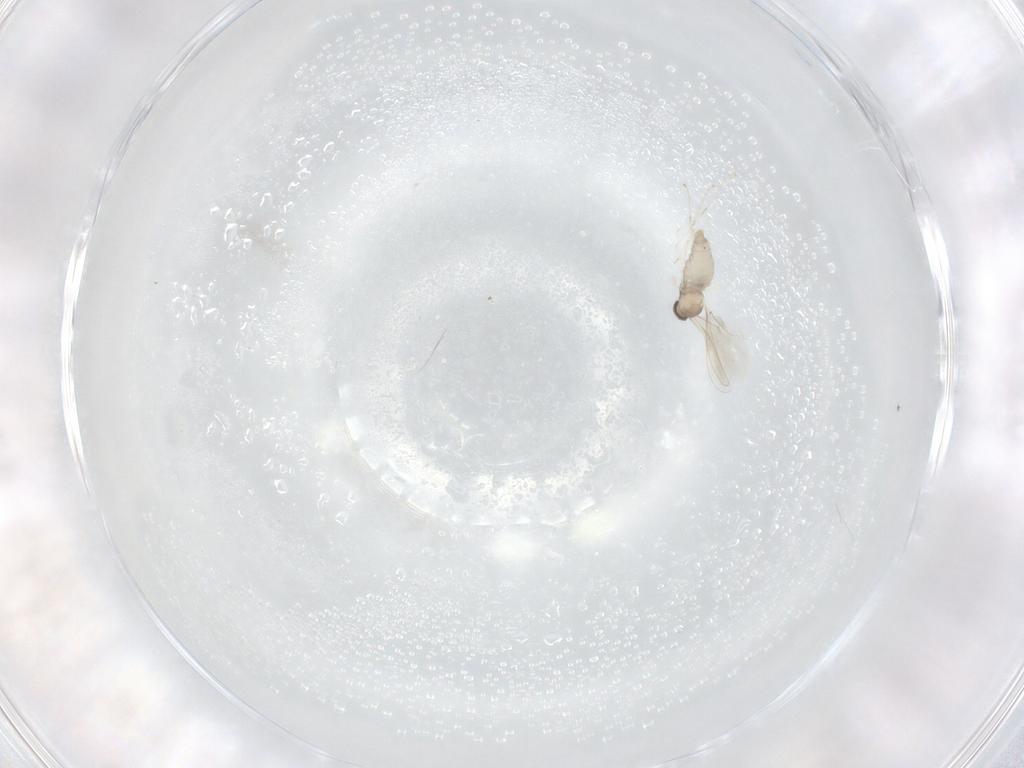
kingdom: Animalia
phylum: Arthropoda
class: Insecta
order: Diptera
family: Cecidomyiidae
